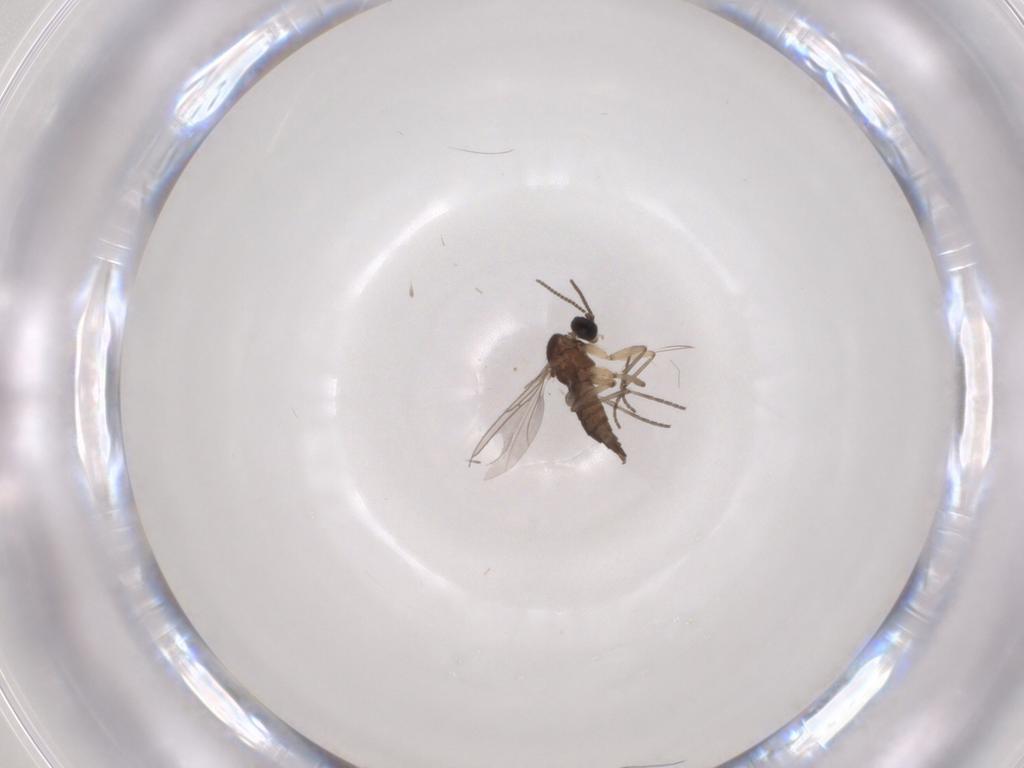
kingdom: Animalia
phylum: Arthropoda
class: Insecta
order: Diptera
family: Sciaridae
